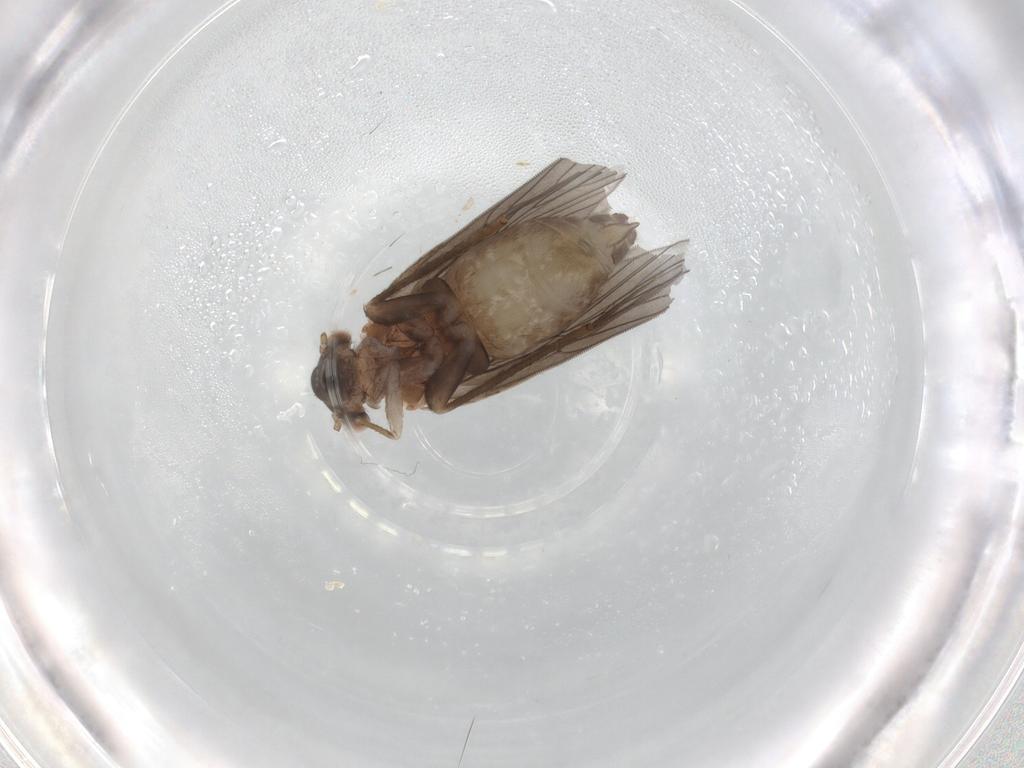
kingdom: Animalia
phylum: Arthropoda
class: Insecta
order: Psocodea
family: Lepidopsocidae
